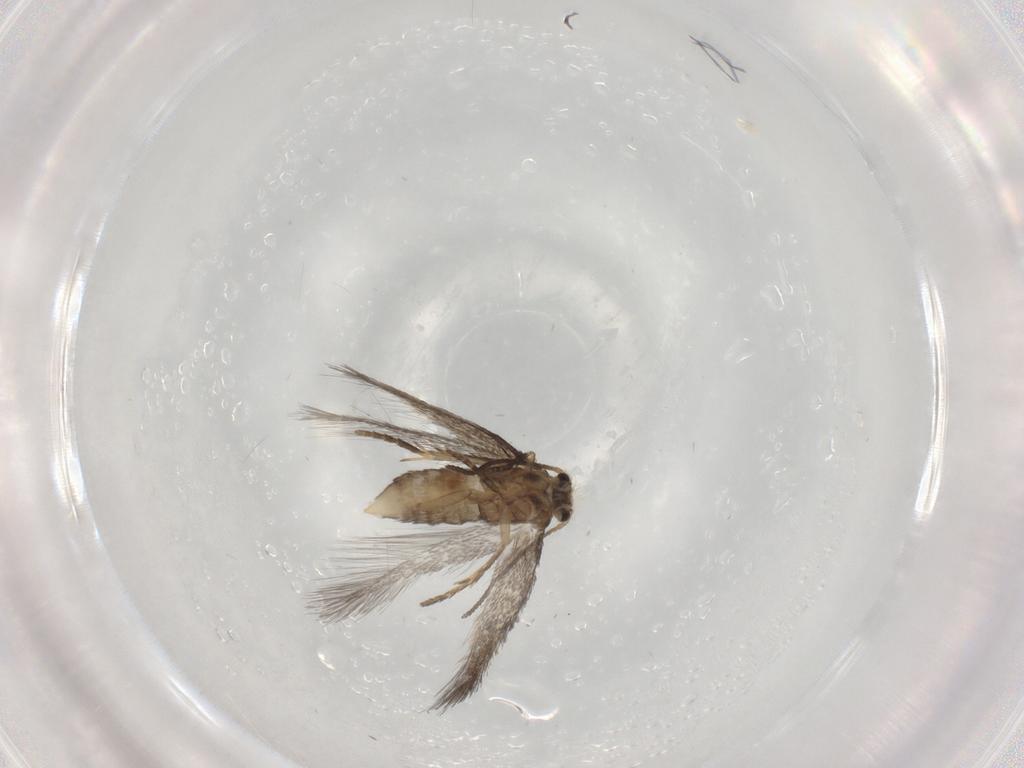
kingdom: Animalia
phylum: Arthropoda
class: Insecta
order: Lepidoptera
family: Nepticulidae
